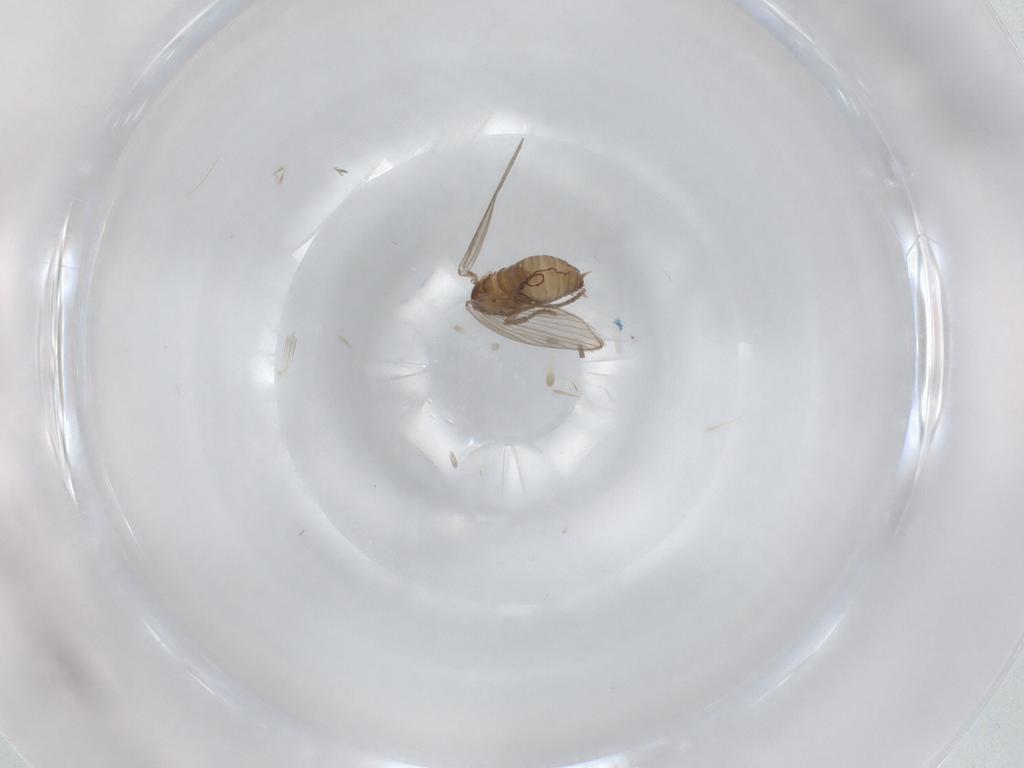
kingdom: Animalia
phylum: Arthropoda
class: Insecta
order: Diptera
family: Psychodidae
